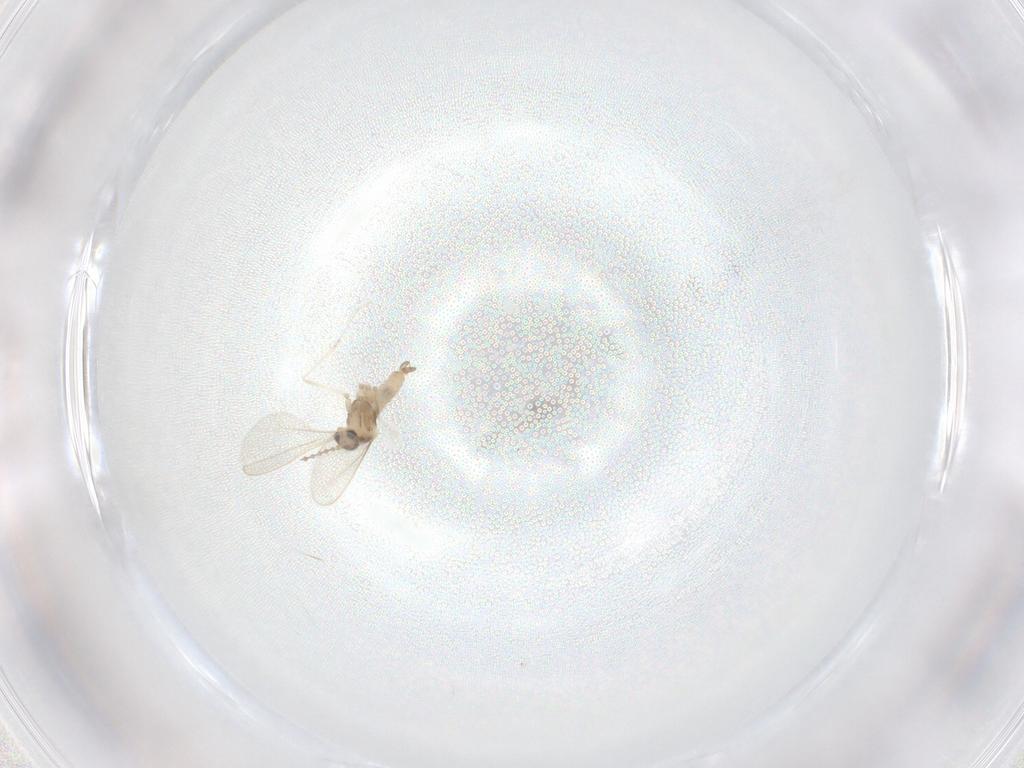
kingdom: Animalia
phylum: Arthropoda
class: Insecta
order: Diptera
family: Cecidomyiidae
